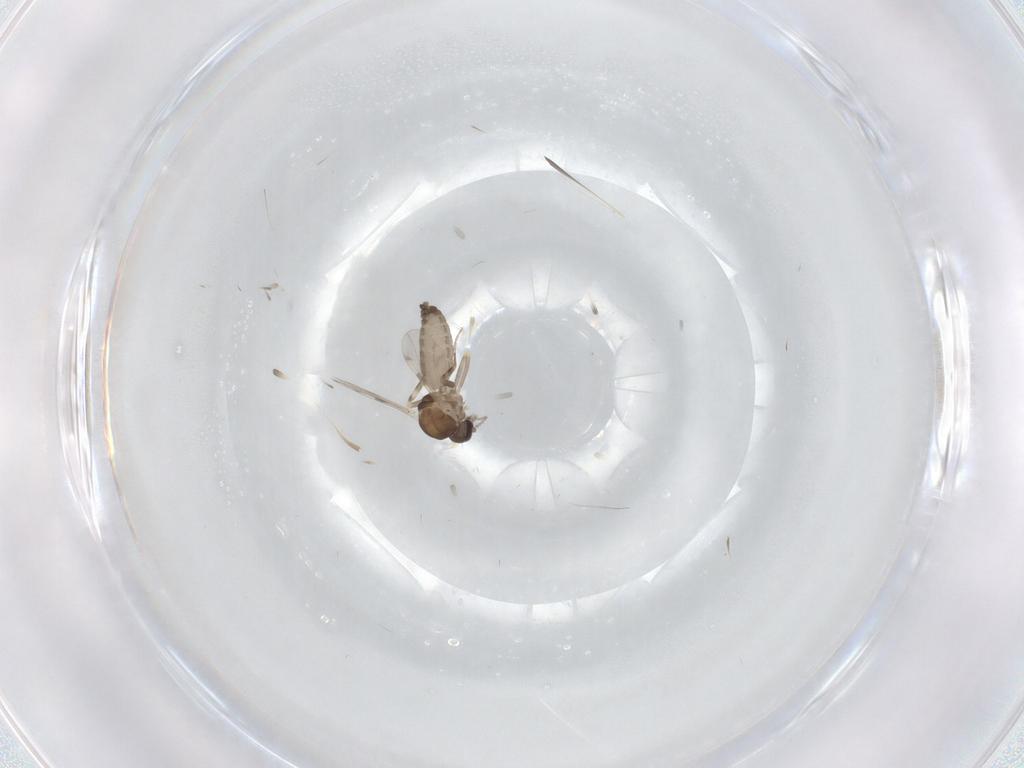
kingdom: Animalia
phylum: Arthropoda
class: Insecta
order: Diptera
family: Ceratopogonidae
